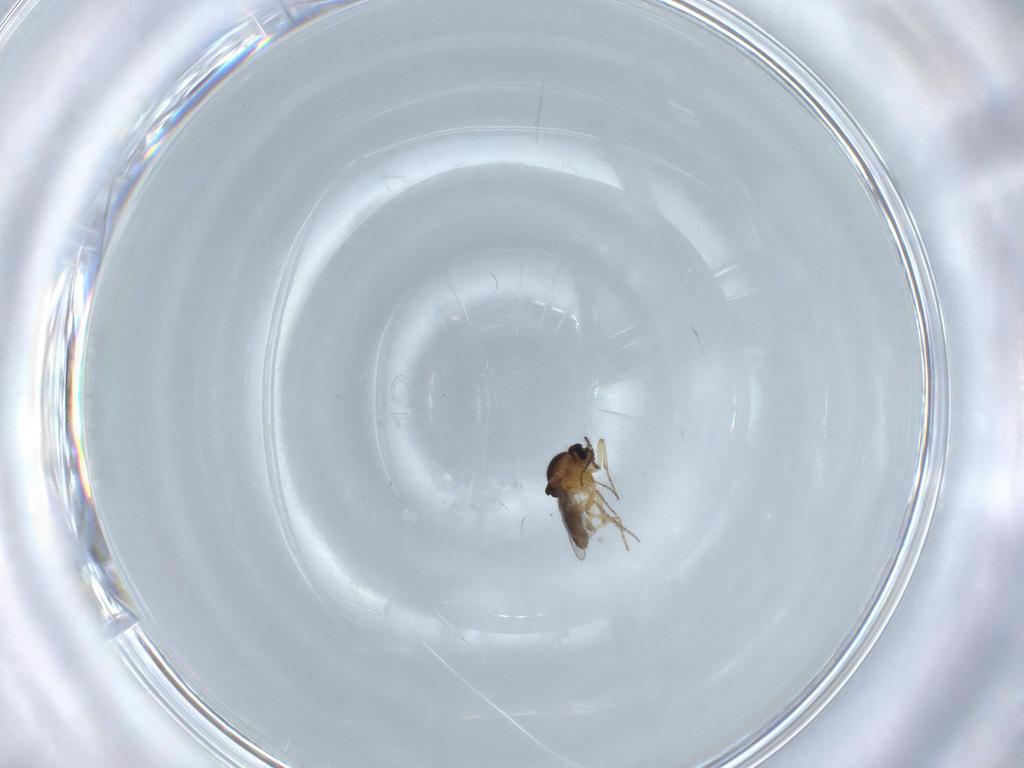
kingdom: Animalia
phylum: Arthropoda
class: Insecta
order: Diptera
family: Ceratopogonidae
